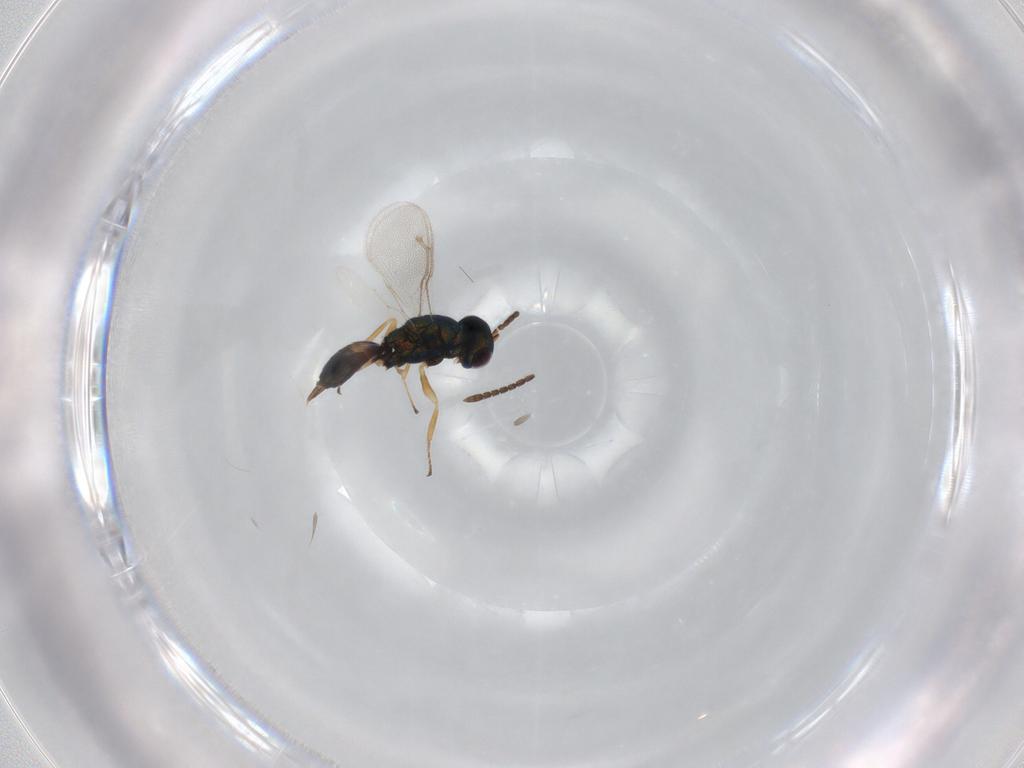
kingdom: Animalia
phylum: Arthropoda
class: Insecta
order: Hymenoptera
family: Pteromalidae
